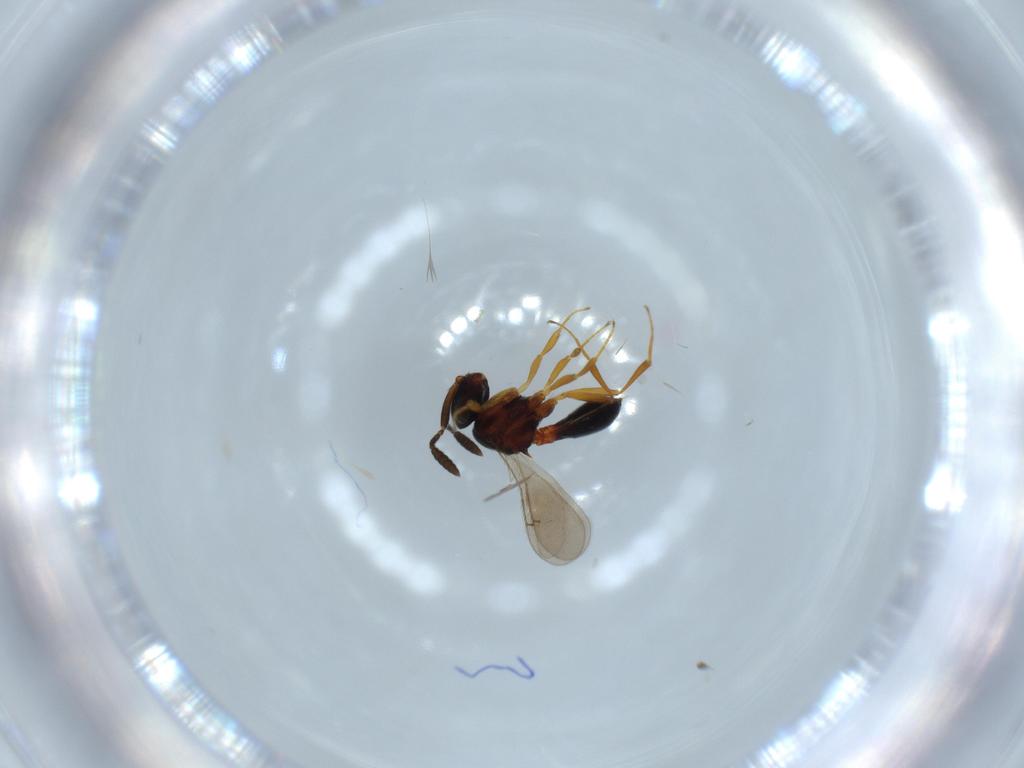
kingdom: Animalia
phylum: Arthropoda
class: Insecta
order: Hymenoptera
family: Scelionidae
